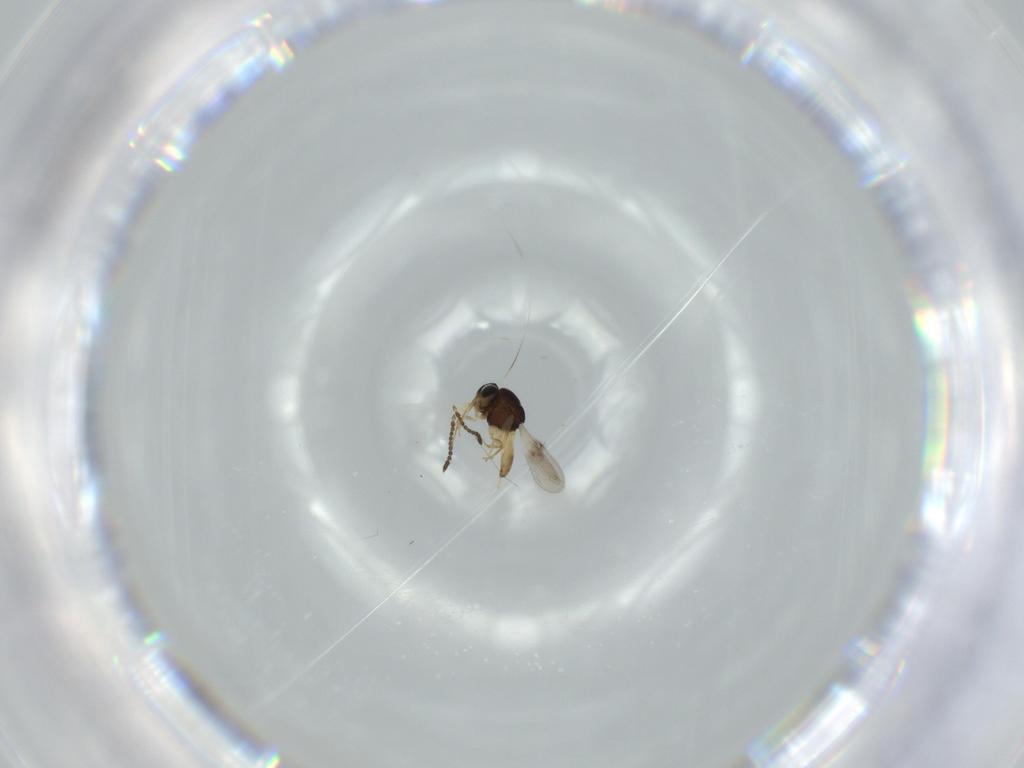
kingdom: Animalia
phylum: Arthropoda
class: Insecta
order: Hymenoptera
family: Scelionidae
